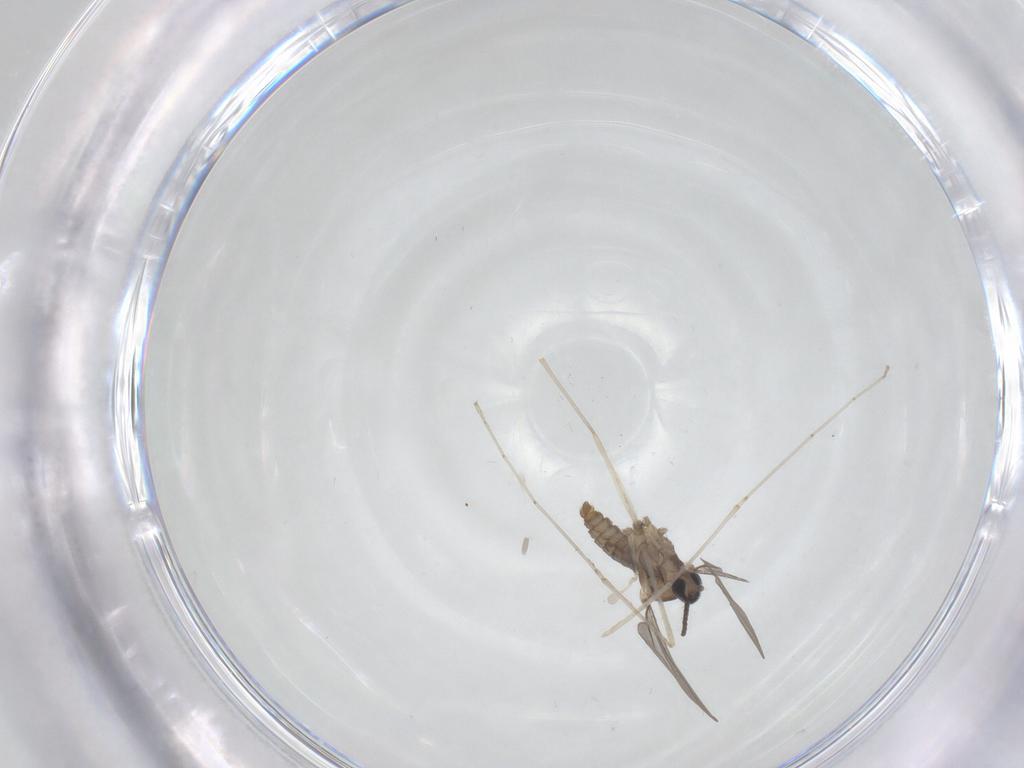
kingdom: Animalia
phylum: Arthropoda
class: Insecta
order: Diptera
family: Cecidomyiidae
